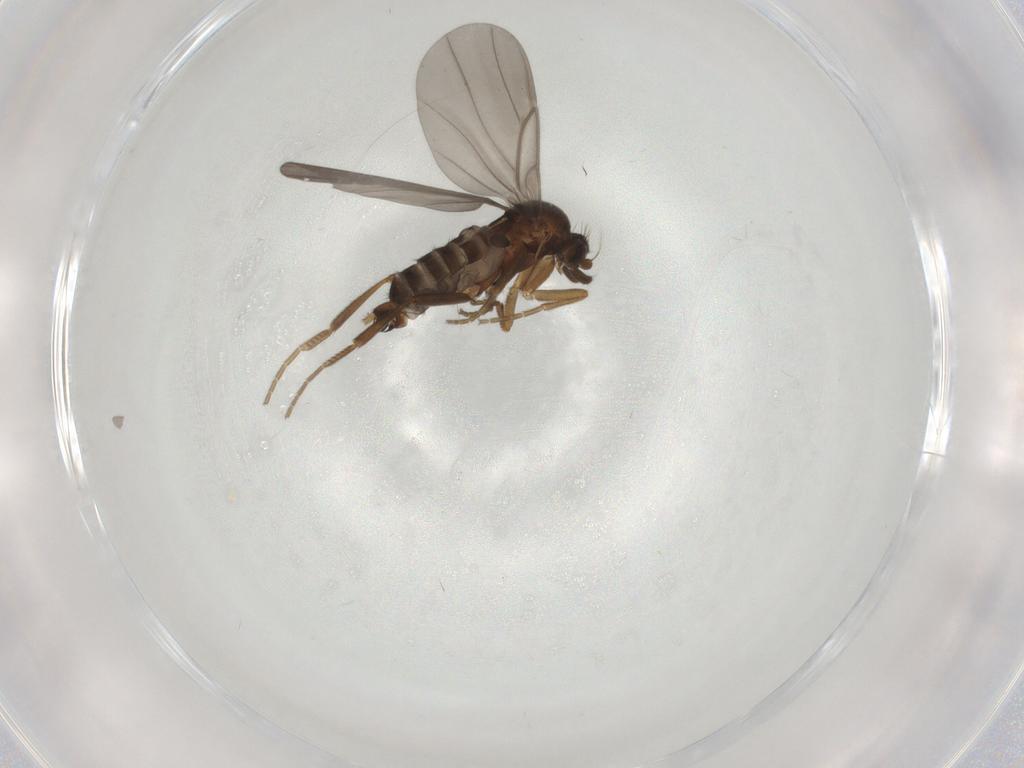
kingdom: Animalia
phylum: Arthropoda
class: Insecta
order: Diptera
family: Phoridae
